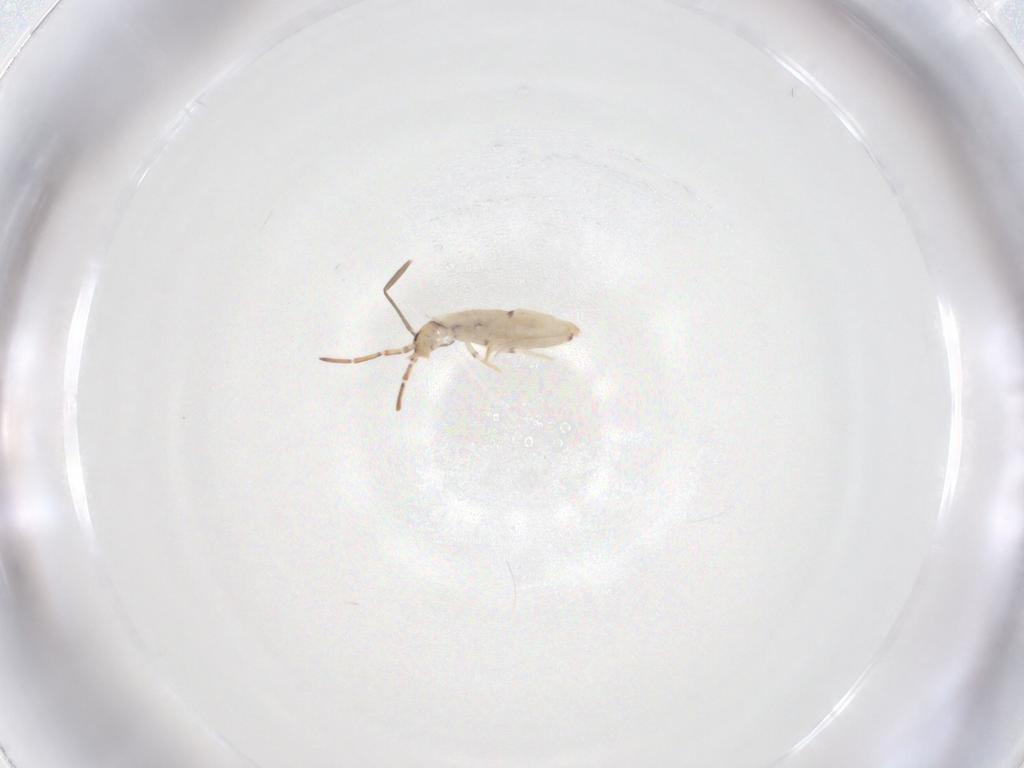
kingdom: Animalia
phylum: Arthropoda
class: Collembola
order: Entomobryomorpha
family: Entomobryidae
